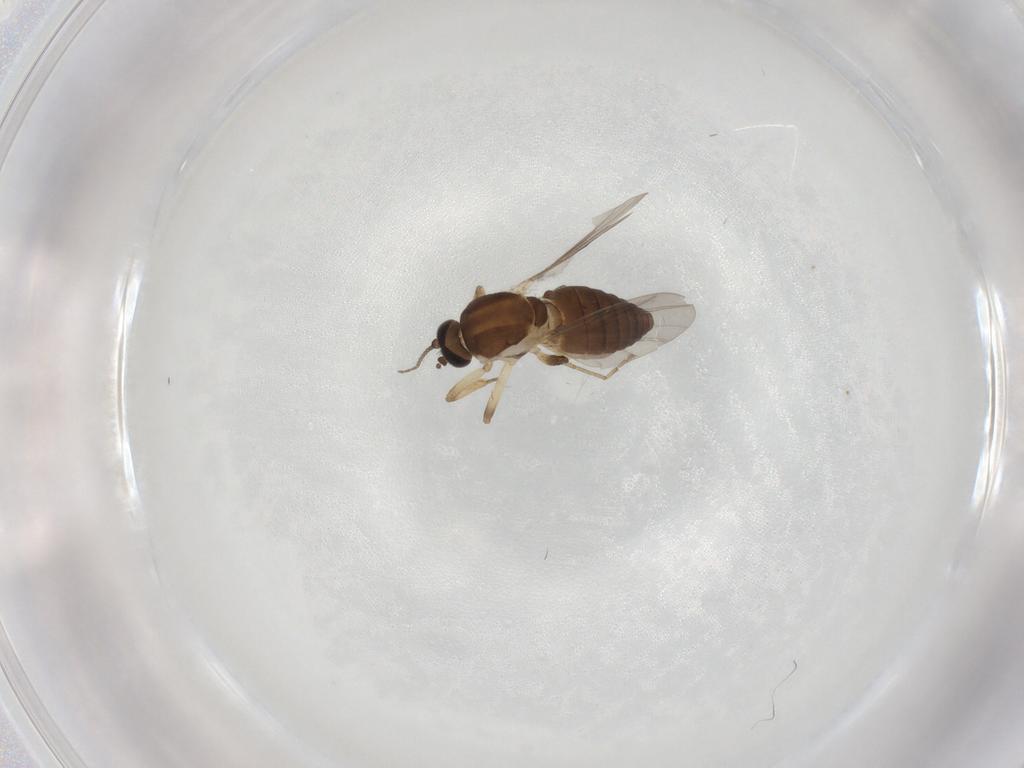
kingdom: Animalia
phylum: Arthropoda
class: Insecta
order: Diptera
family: Ceratopogonidae
